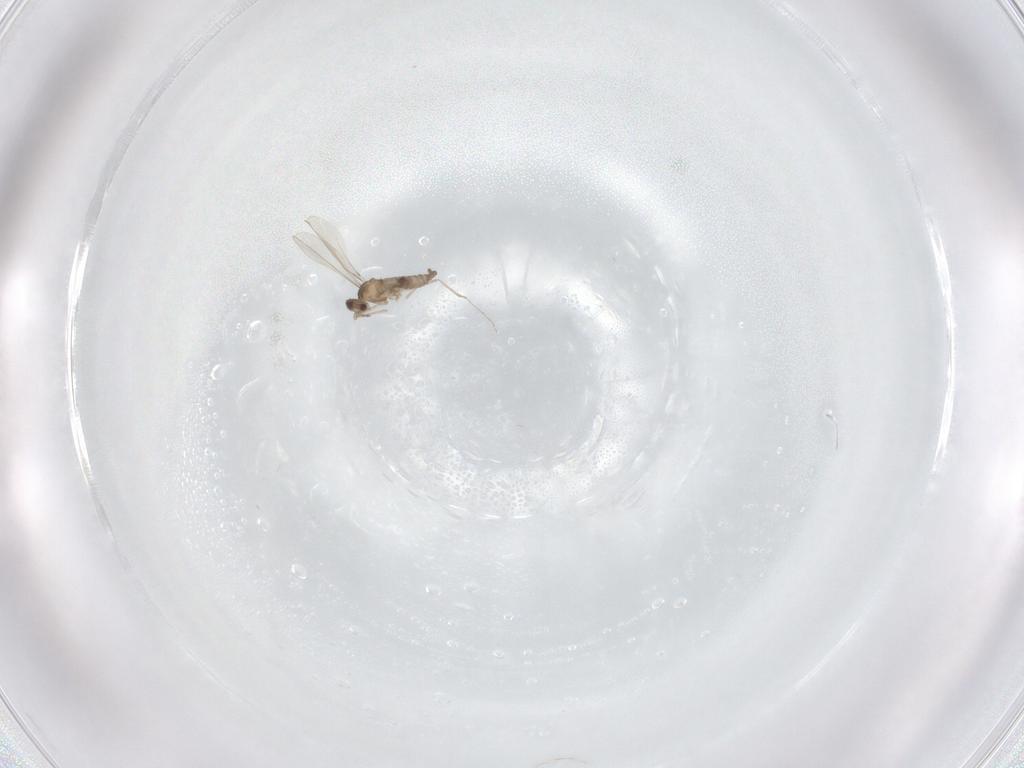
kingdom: Animalia
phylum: Arthropoda
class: Insecta
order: Diptera
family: Cecidomyiidae
